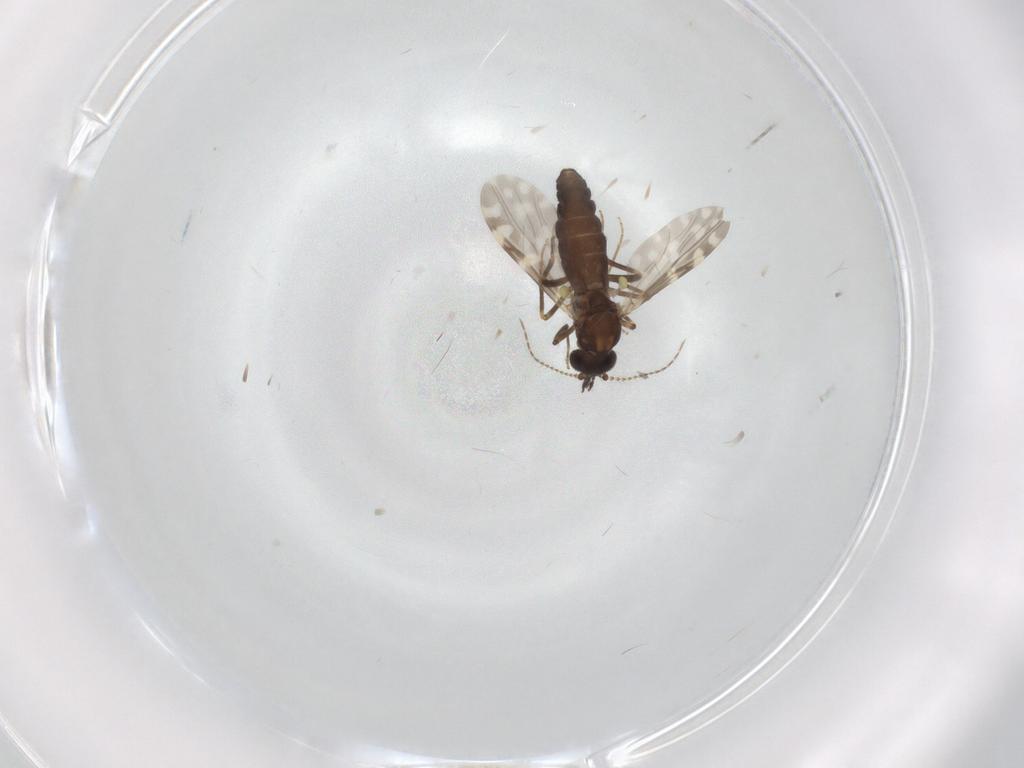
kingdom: Animalia
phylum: Arthropoda
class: Insecta
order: Diptera
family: Ceratopogonidae
